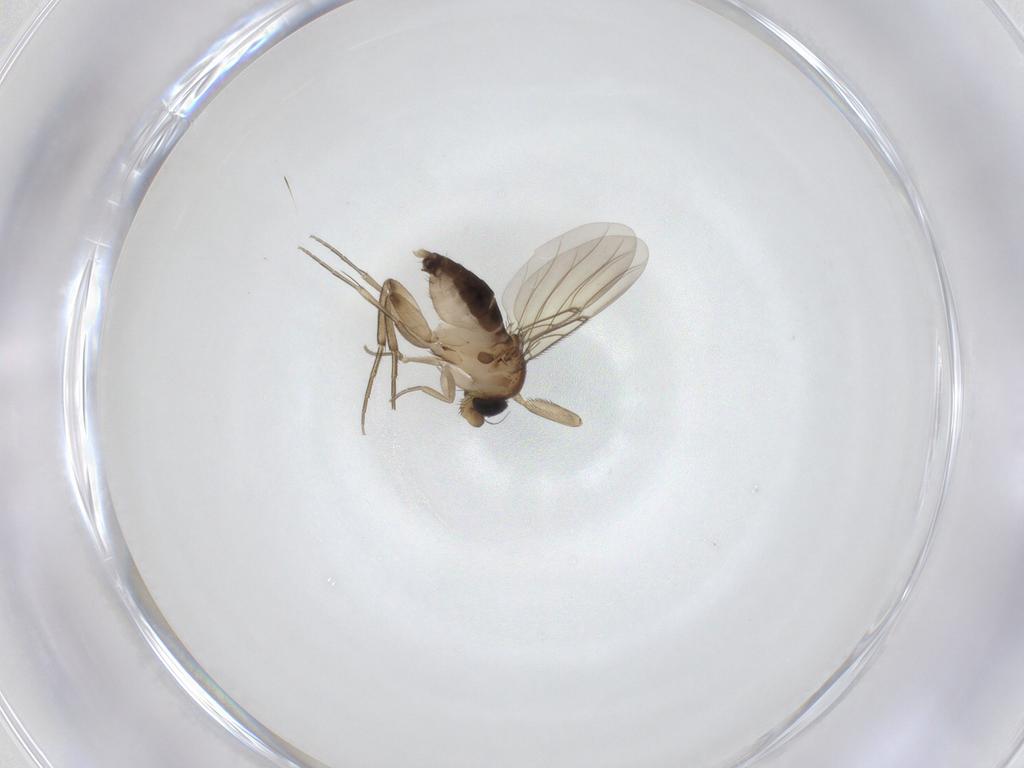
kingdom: Animalia
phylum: Arthropoda
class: Insecta
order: Diptera
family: Phoridae
